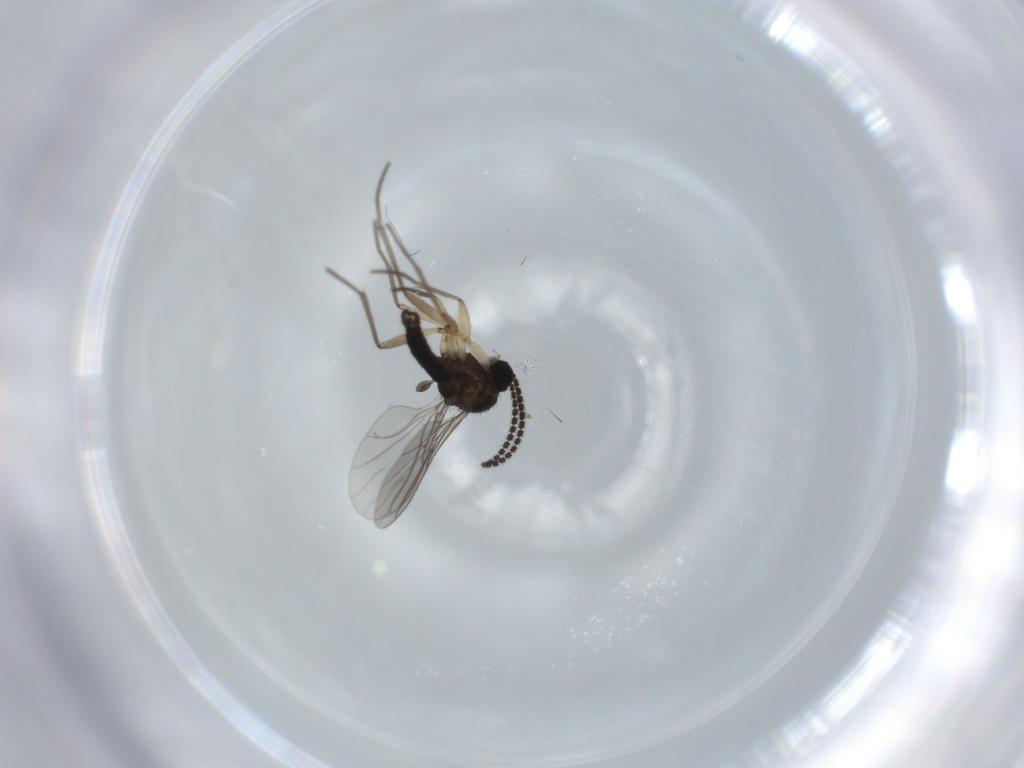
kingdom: Animalia
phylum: Arthropoda
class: Insecta
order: Diptera
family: Sciaridae
